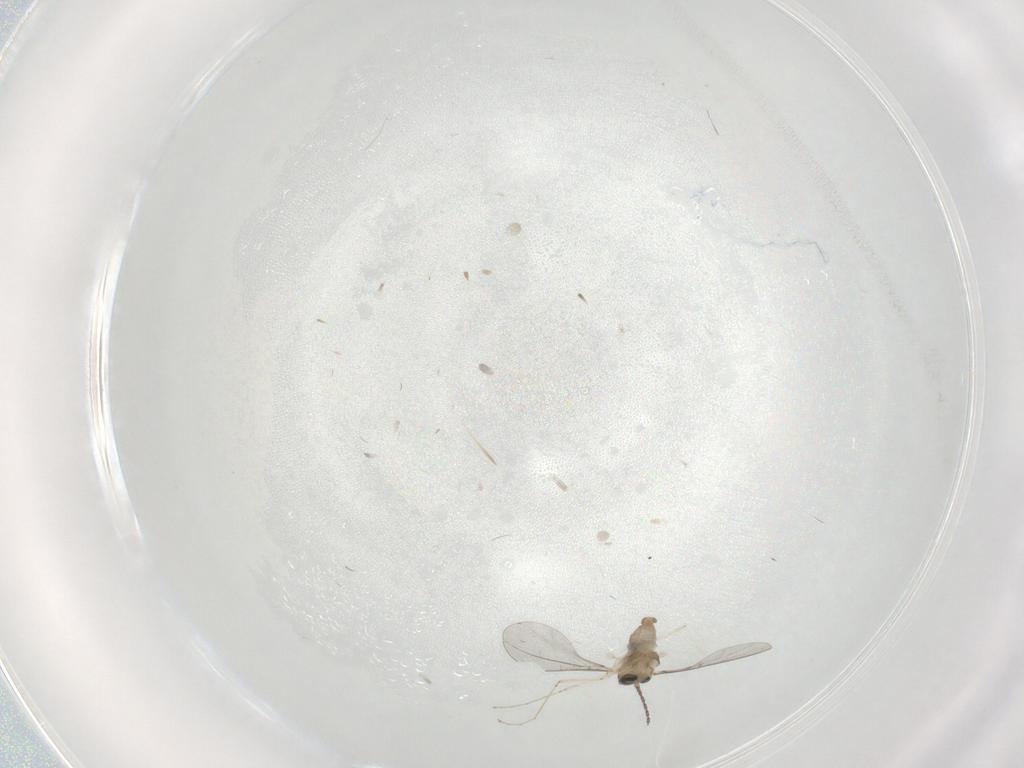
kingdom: Animalia
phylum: Arthropoda
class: Insecta
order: Diptera
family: Cecidomyiidae
